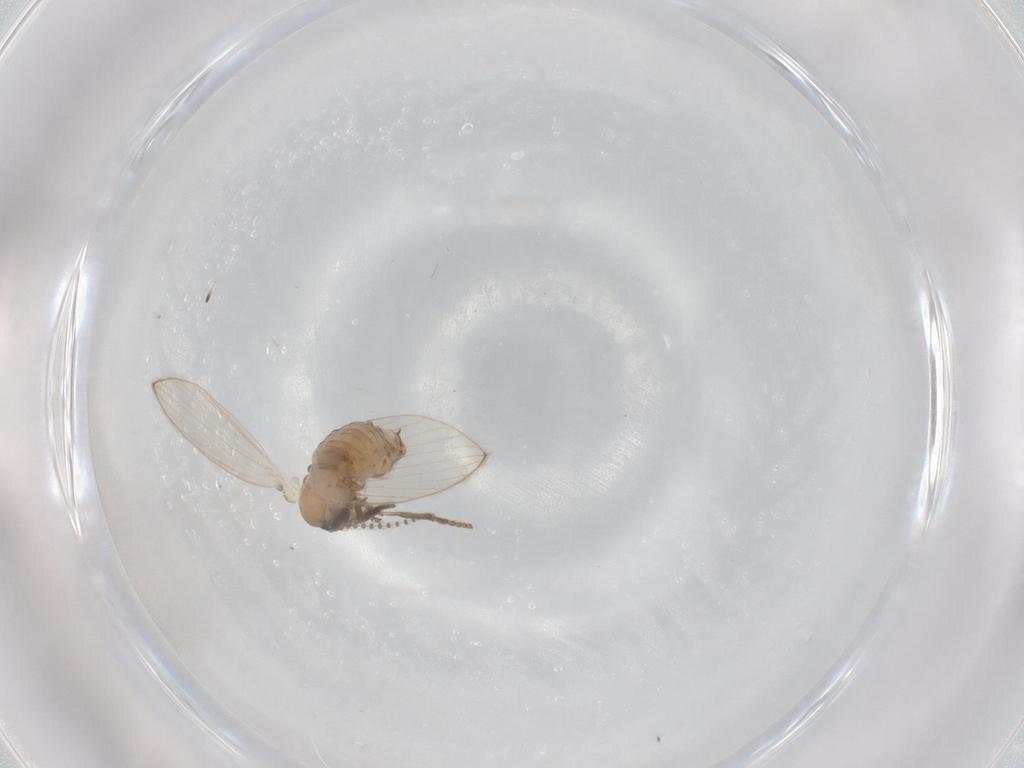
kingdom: Animalia
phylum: Arthropoda
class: Insecta
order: Diptera
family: Psychodidae
